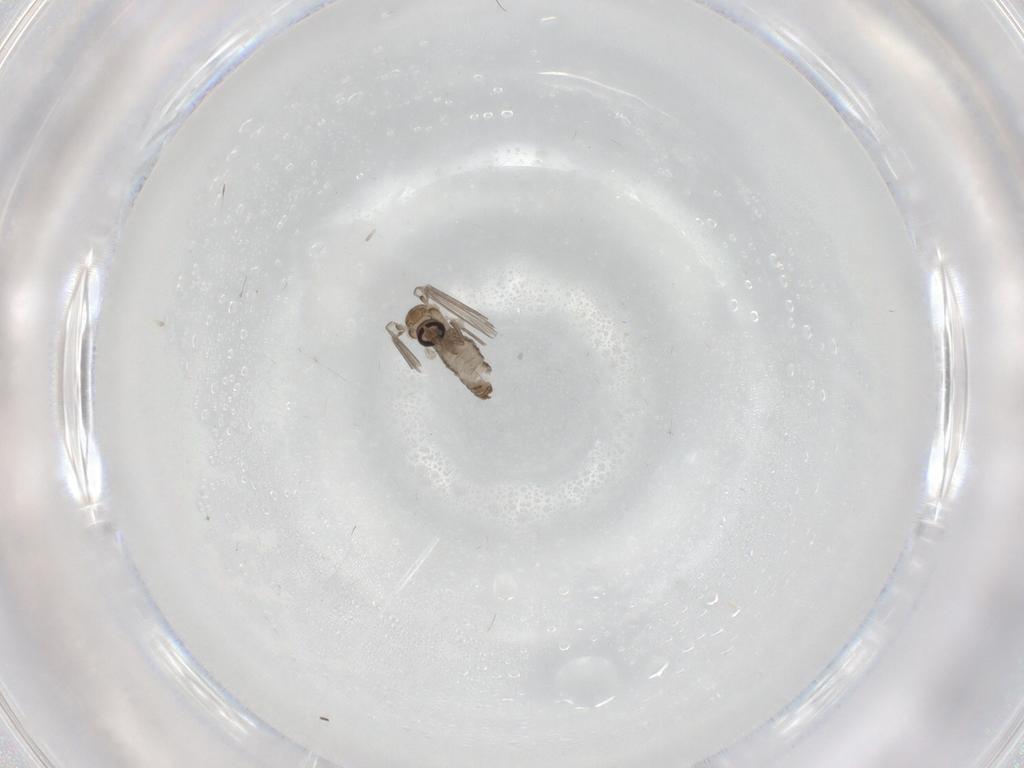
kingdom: Animalia
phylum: Arthropoda
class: Insecta
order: Diptera
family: Psychodidae
